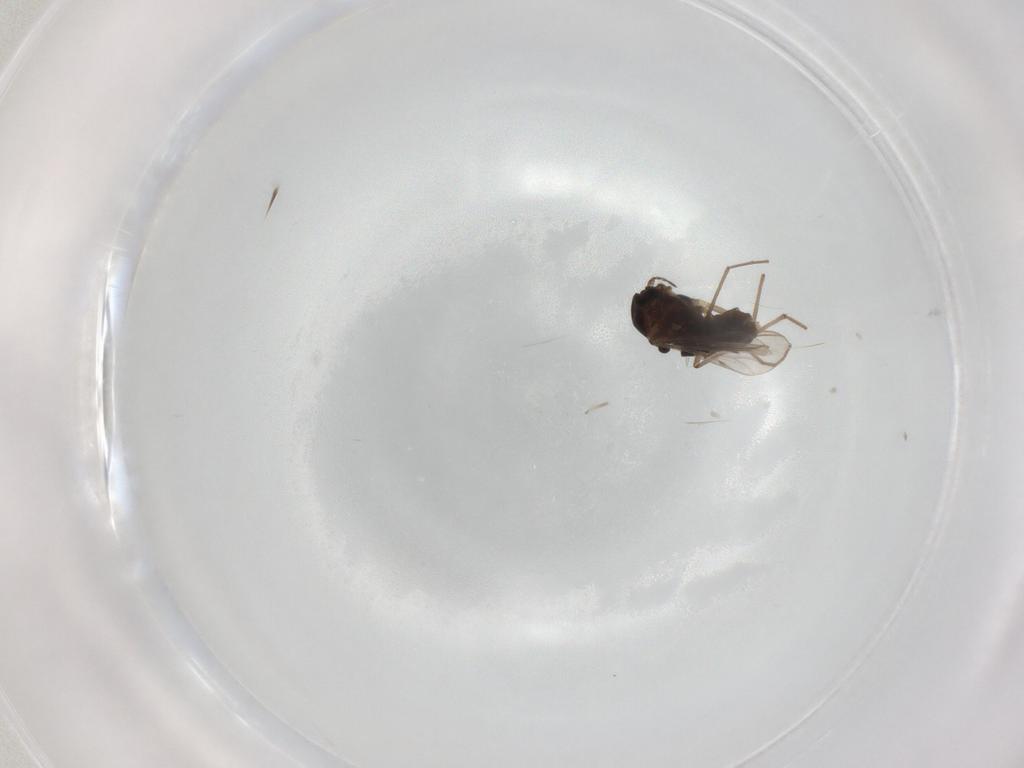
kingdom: Animalia
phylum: Arthropoda
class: Insecta
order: Diptera
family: Chironomidae
